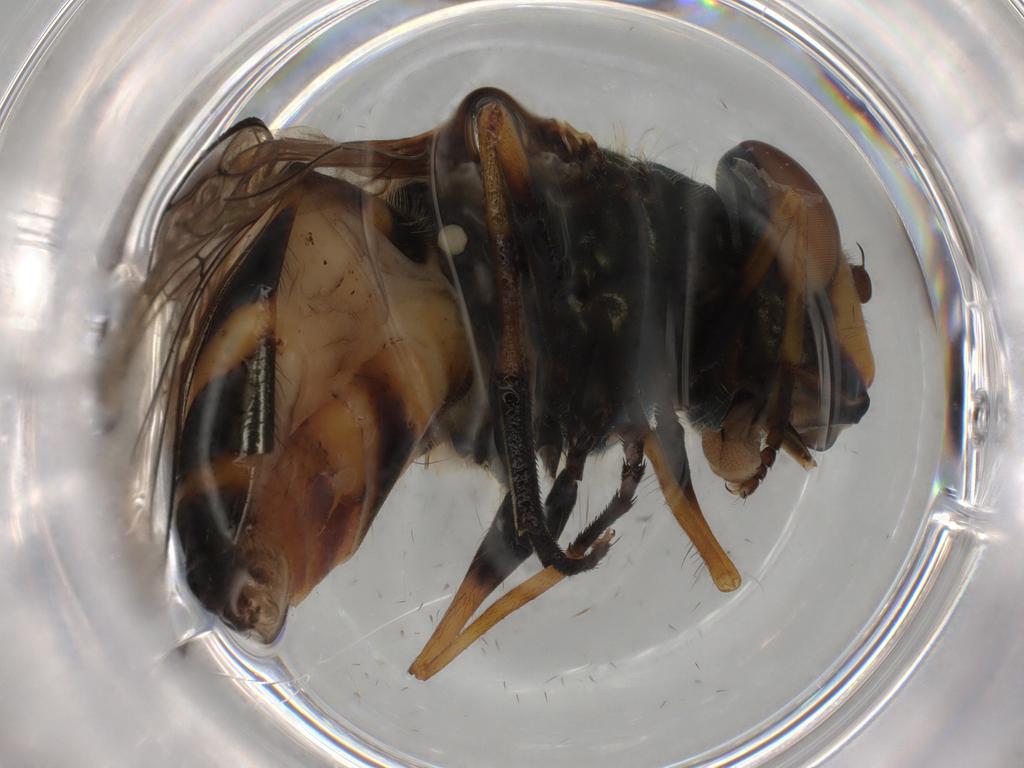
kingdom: Animalia
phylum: Arthropoda
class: Insecta
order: Diptera
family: Syrphidae
